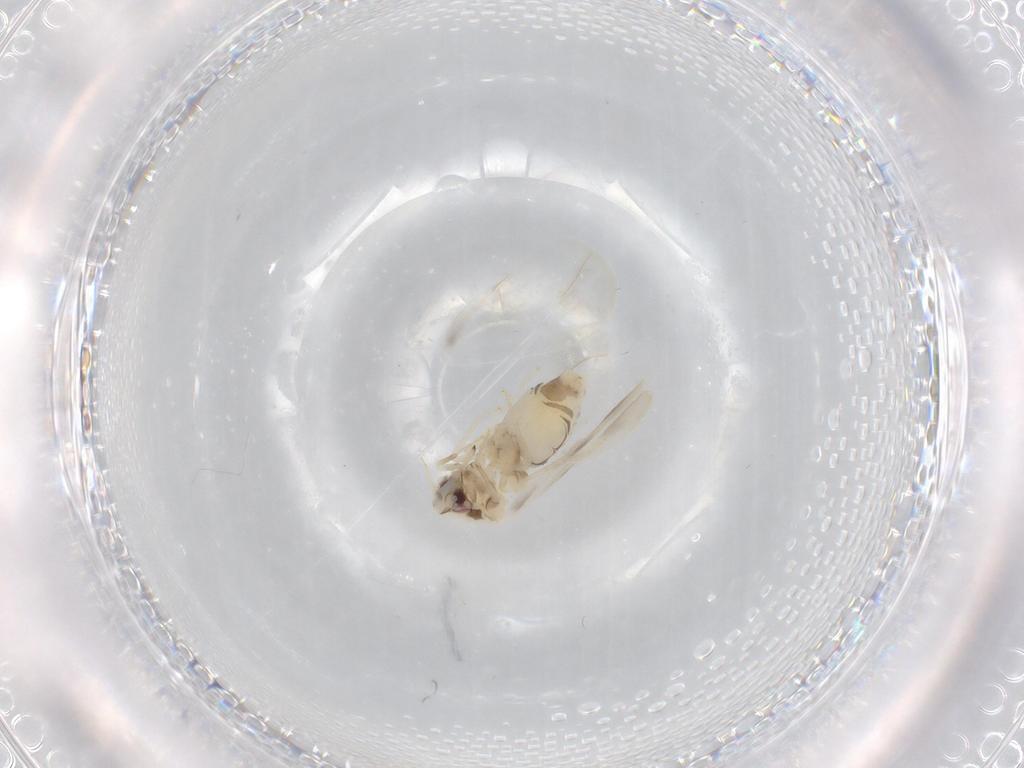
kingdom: Animalia
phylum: Arthropoda
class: Insecta
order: Hemiptera
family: Aleyrodidae
